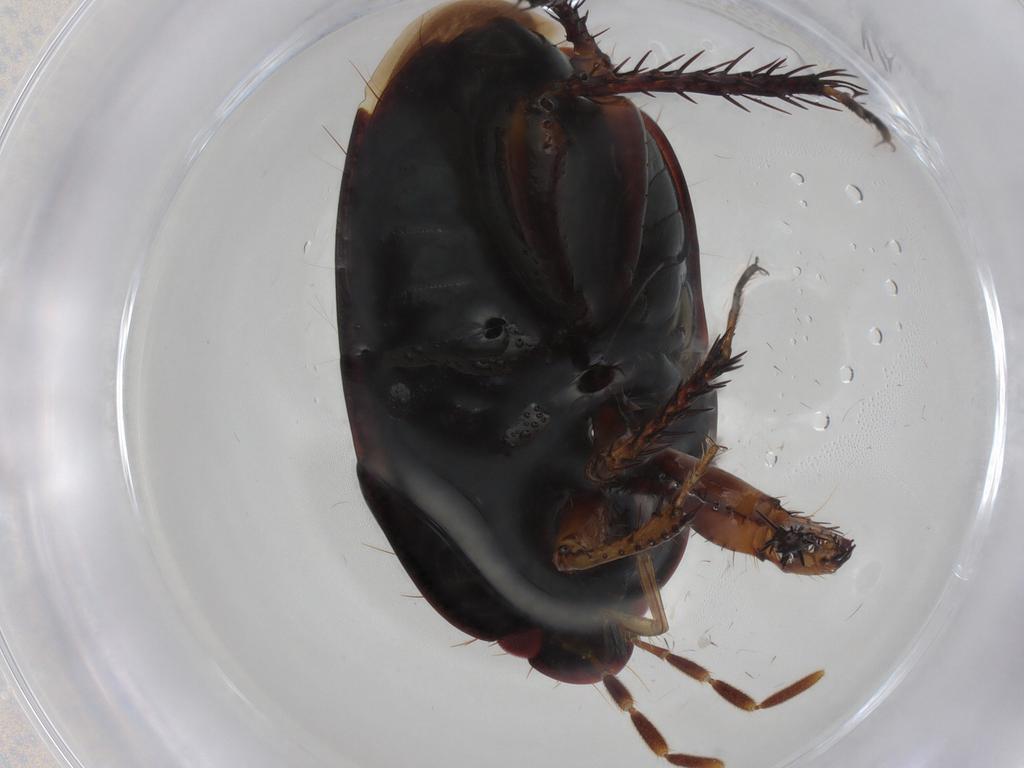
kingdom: Animalia
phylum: Arthropoda
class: Insecta
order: Hemiptera
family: Cydnidae
